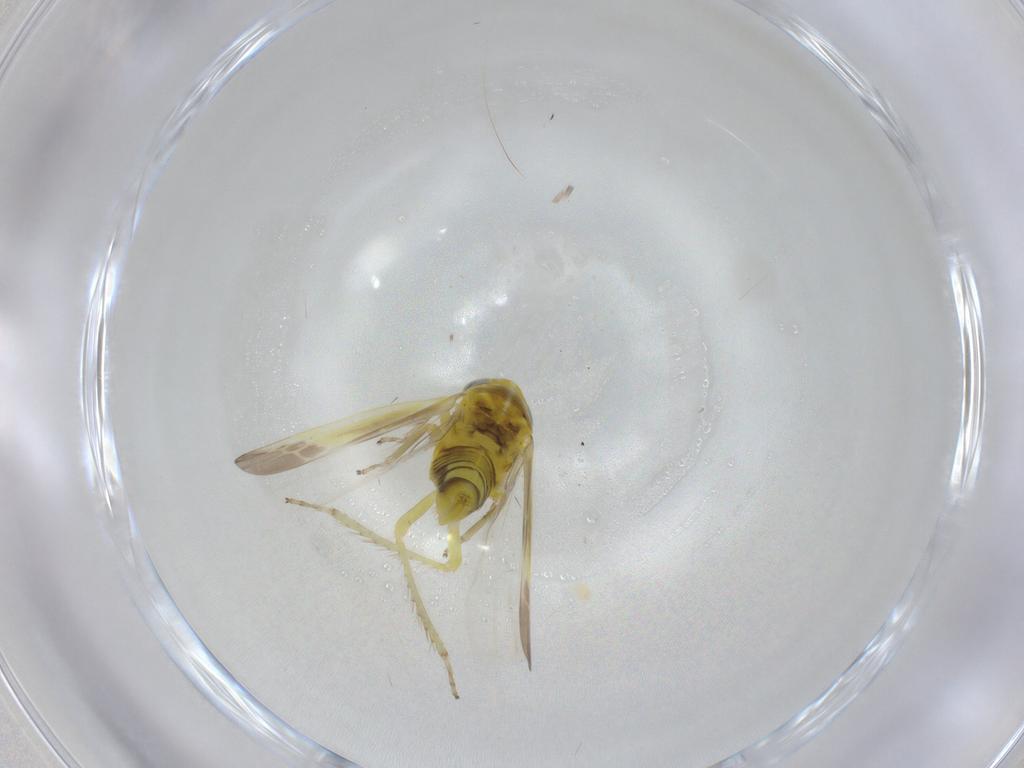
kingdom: Animalia
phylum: Arthropoda
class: Insecta
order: Hemiptera
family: Cicadellidae
